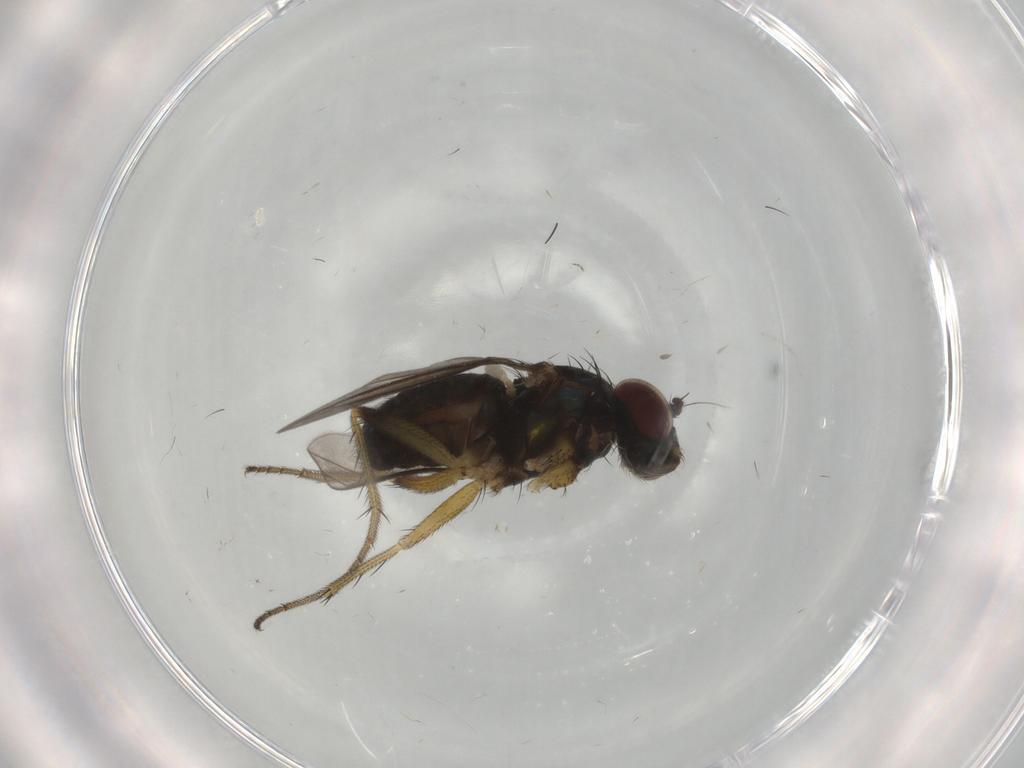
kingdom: Animalia
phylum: Arthropoda
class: Insecta
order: Diptera
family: Dolichopodidae
